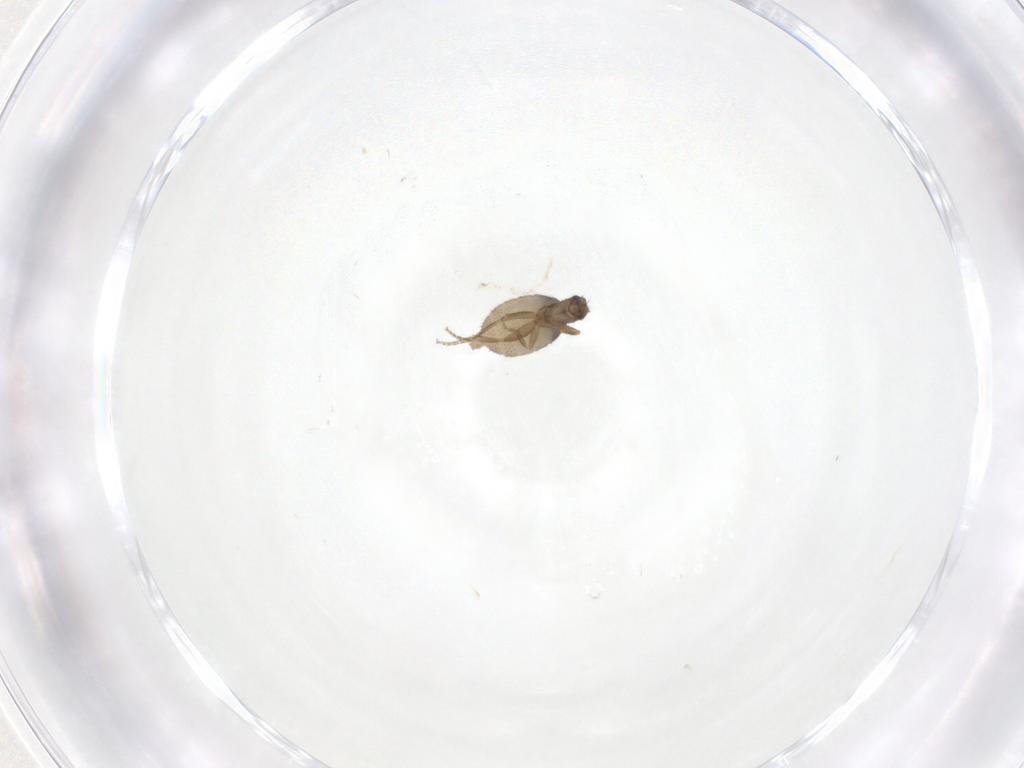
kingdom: Animalia
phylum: Arthropoda
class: Insecta
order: Diptera
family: Phoridae
